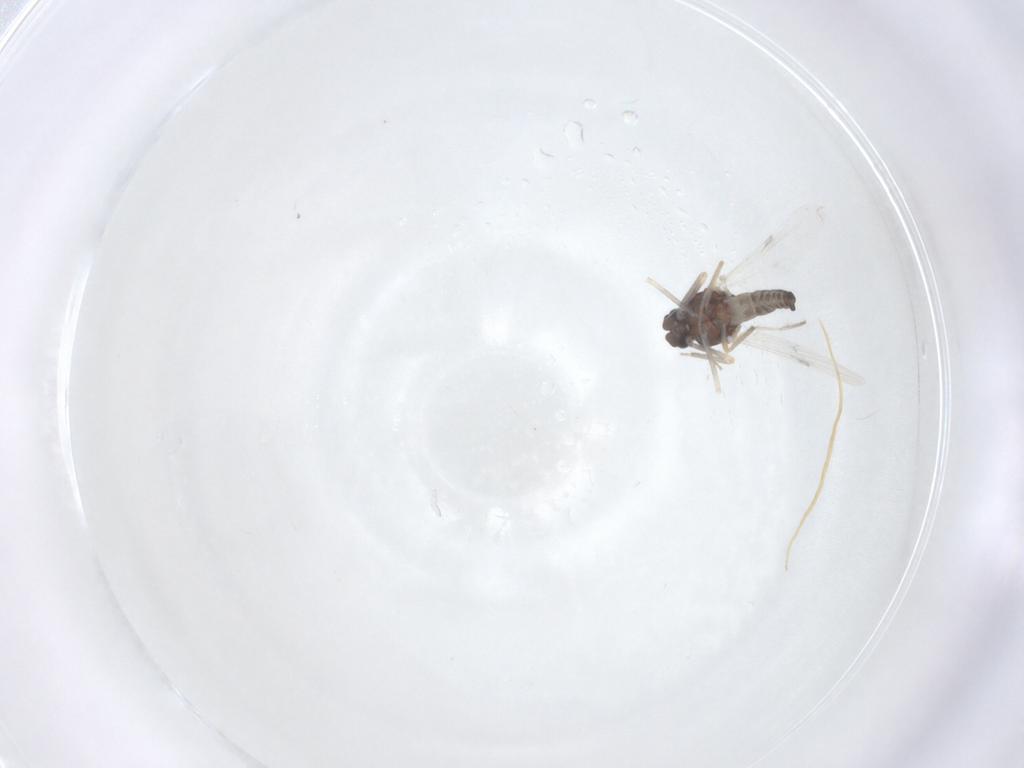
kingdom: Animalia
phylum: Arthropoda
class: Insecta
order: Diptera
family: Ceratopogonidae
